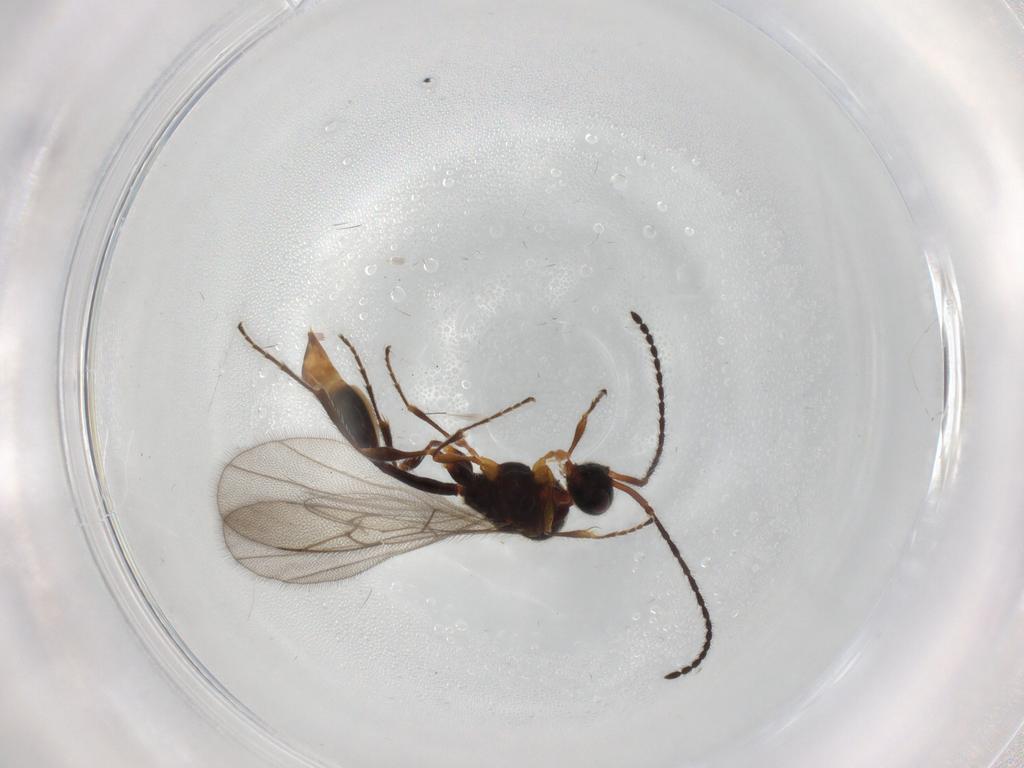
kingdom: Animalia
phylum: Arthropoda
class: Insecta
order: Hymenoptera
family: Diapriidae
